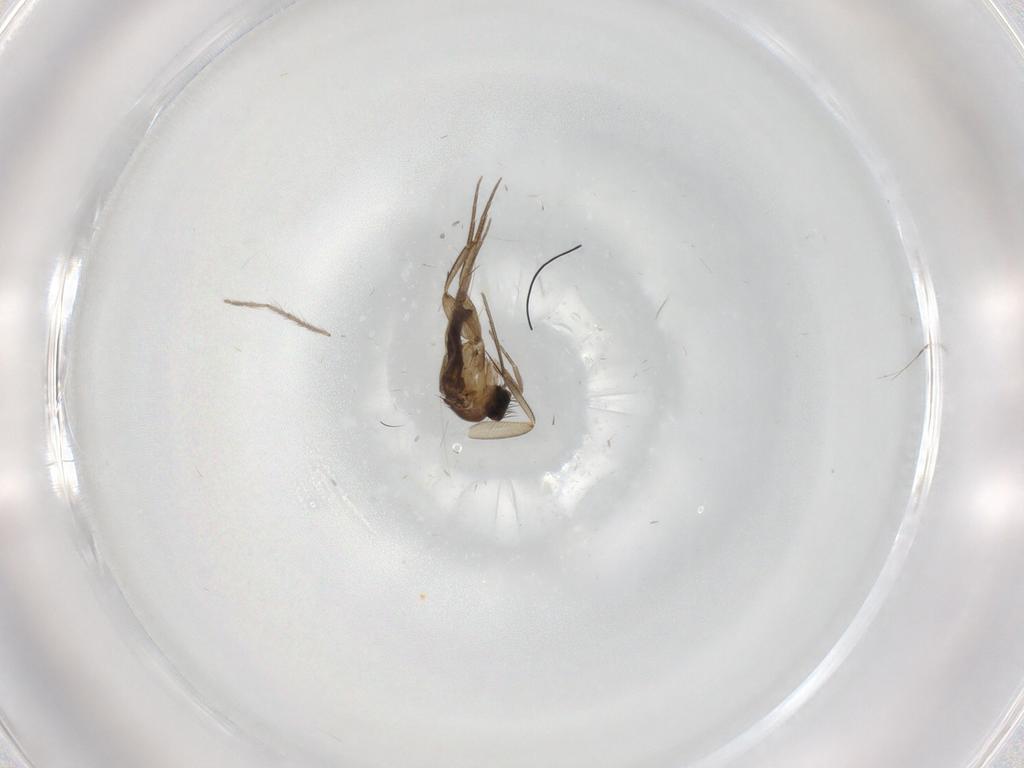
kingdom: Animalia
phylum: Arthropoda
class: Insecta
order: Diptera
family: Phoridae
